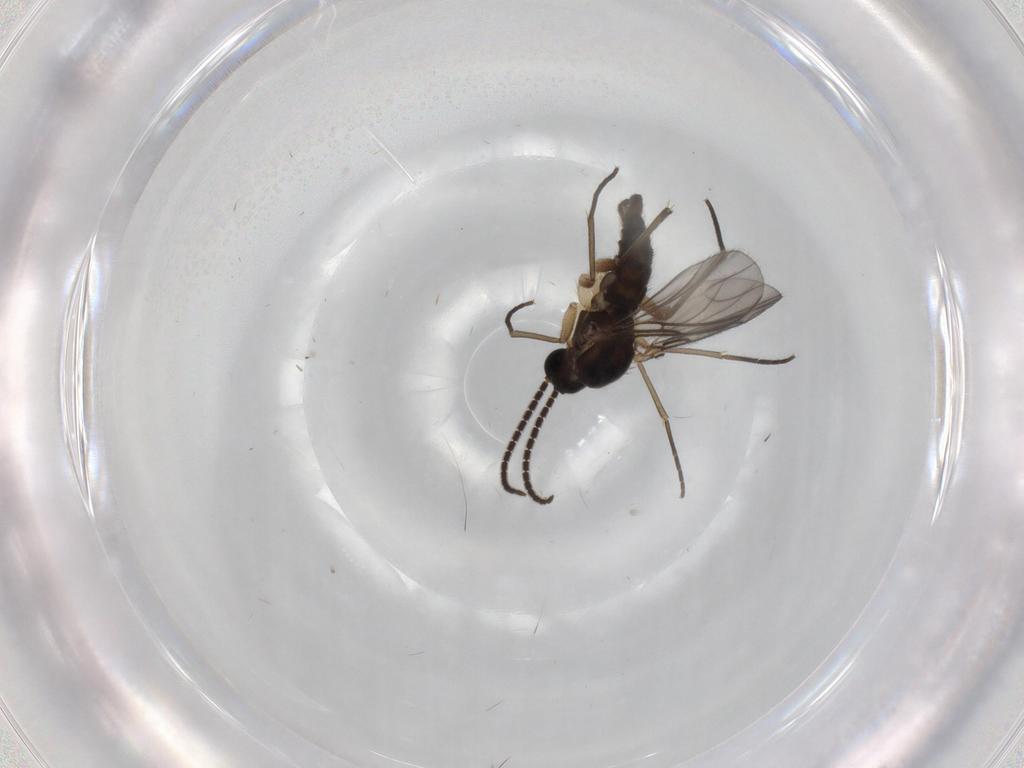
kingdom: Animalia
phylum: Arthropoda
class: Insecta
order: Diptera
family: Sciaridae
